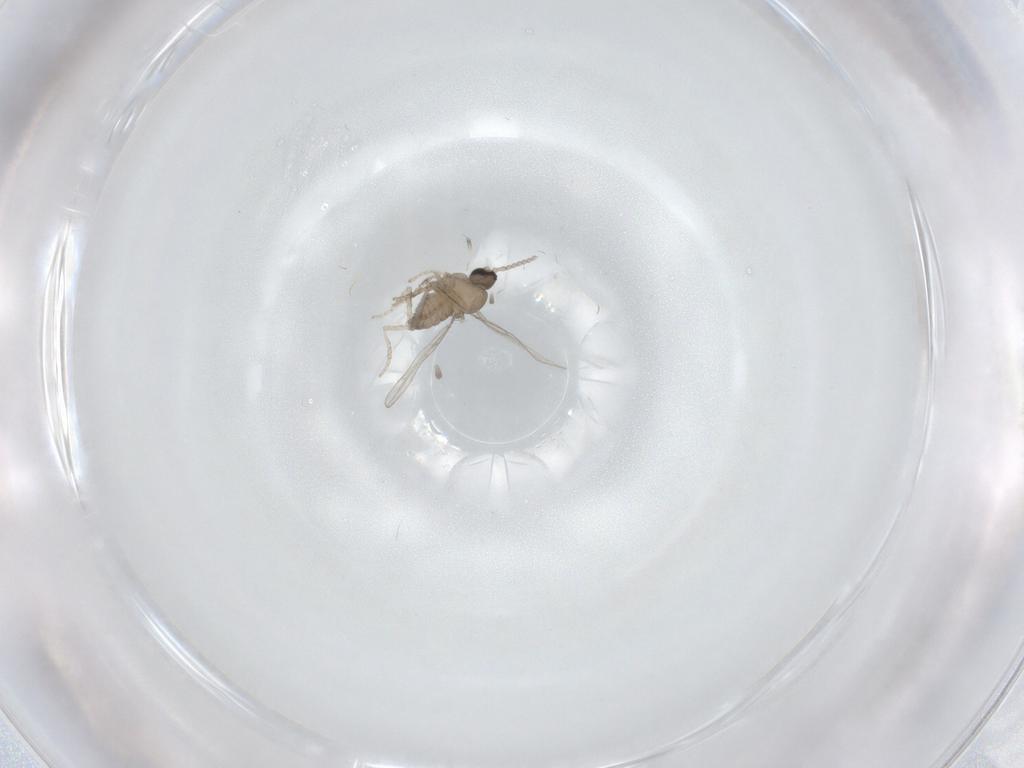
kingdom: Animalia
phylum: Arthropoda
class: Insecta
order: Diptera
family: Cecidomyiidae
